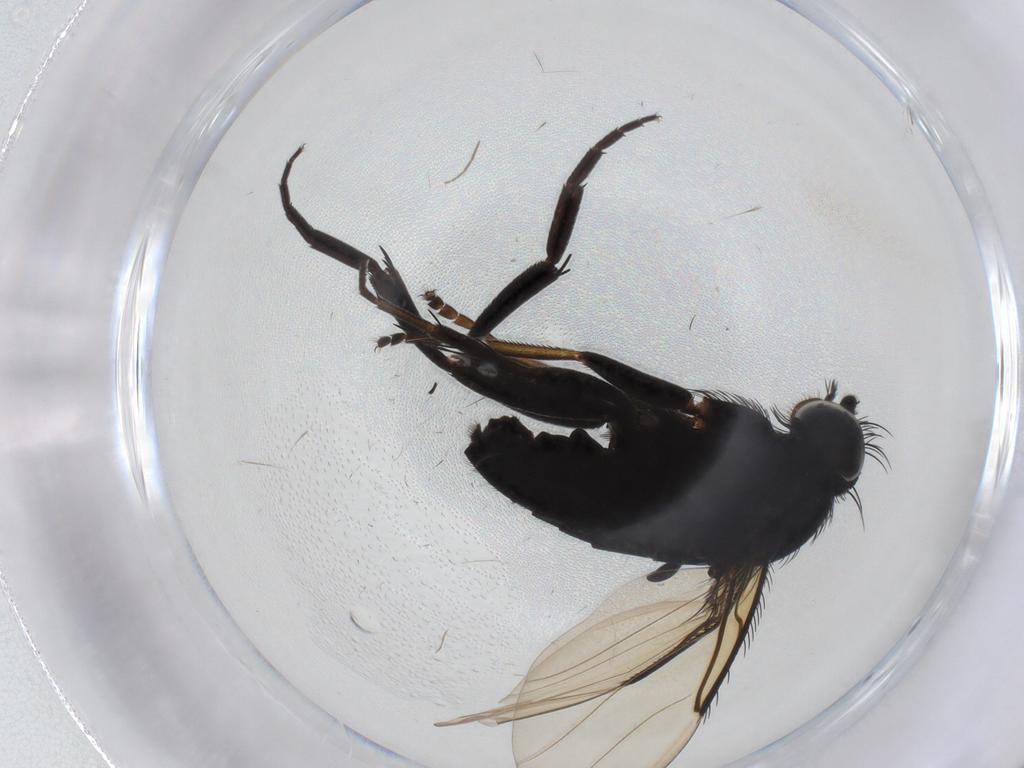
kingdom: Animalia
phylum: Arthropoda
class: Insecta
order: Diptera
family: Phoridae
